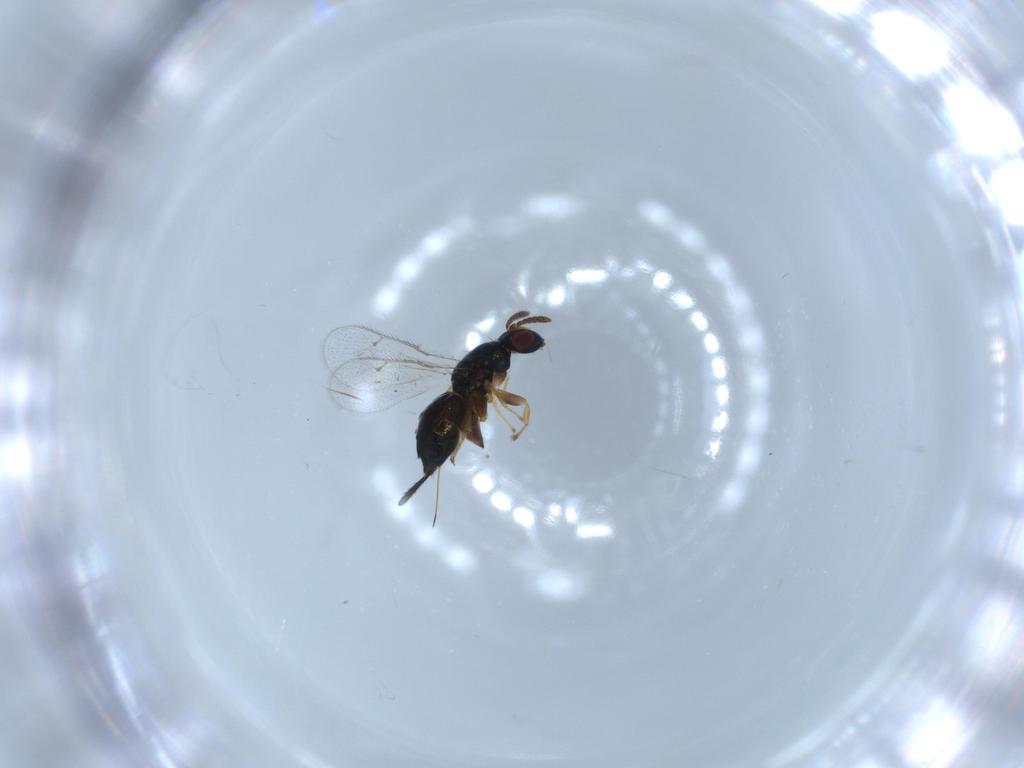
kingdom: Animalia
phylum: Arthropoda
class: Insecta
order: Hymenoptera
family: Torymidae
